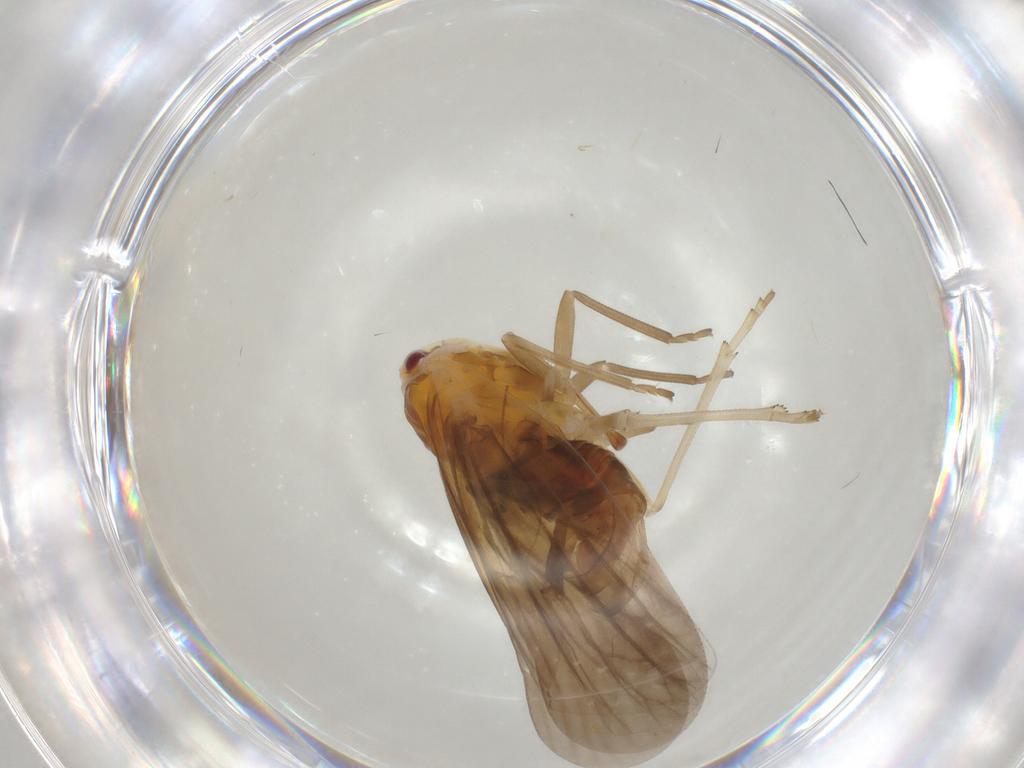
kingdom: Animalia
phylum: Arthropoda
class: Insecta
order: Hemiptera
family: Derbidae
